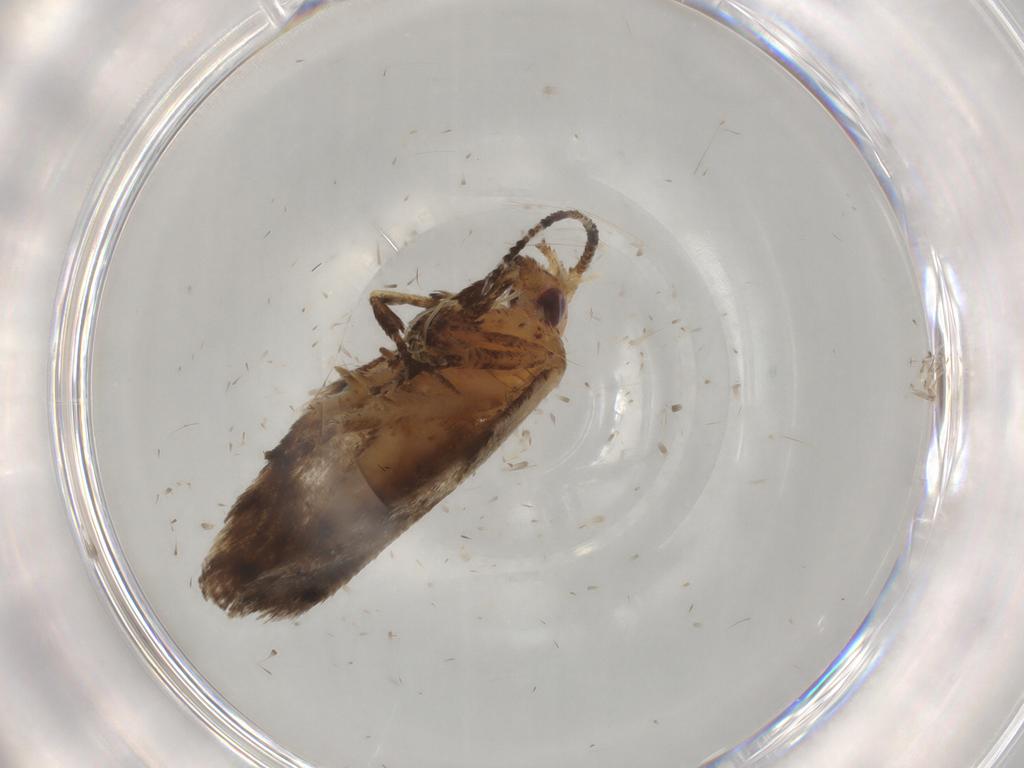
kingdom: Animalia
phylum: Arthropoda
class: Insecta
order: Lepidoptera
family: Ypsolophidae
